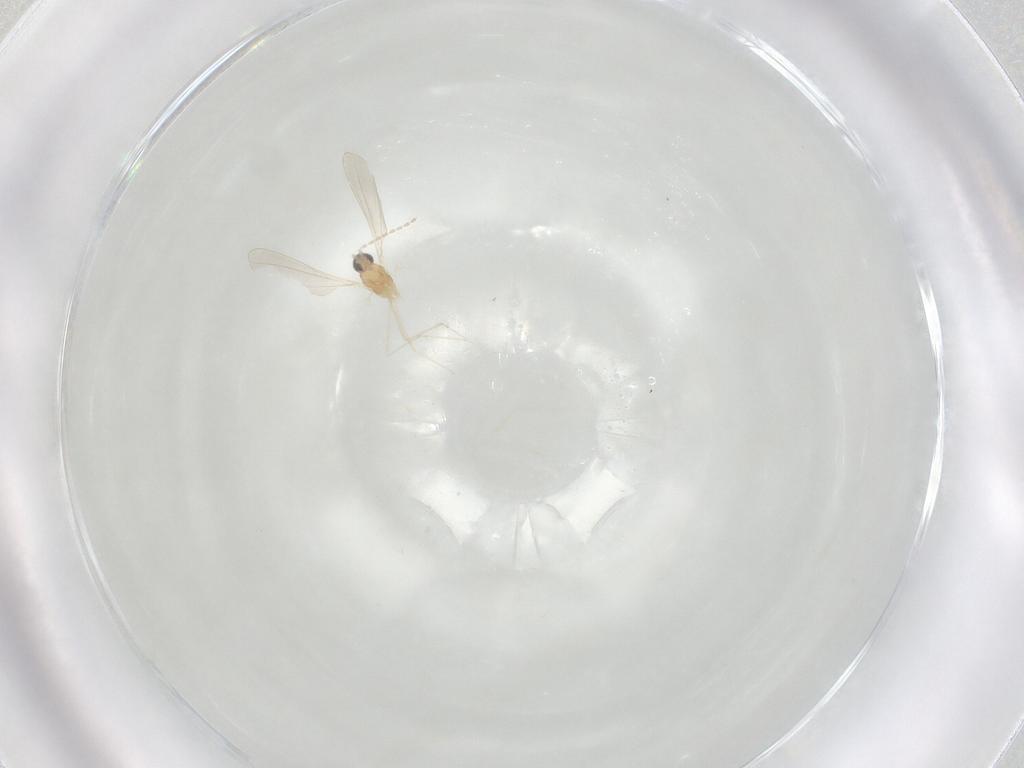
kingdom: Animalia
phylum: Arthropoda
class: Insecta
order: Diptera
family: Cecidomyiidae
